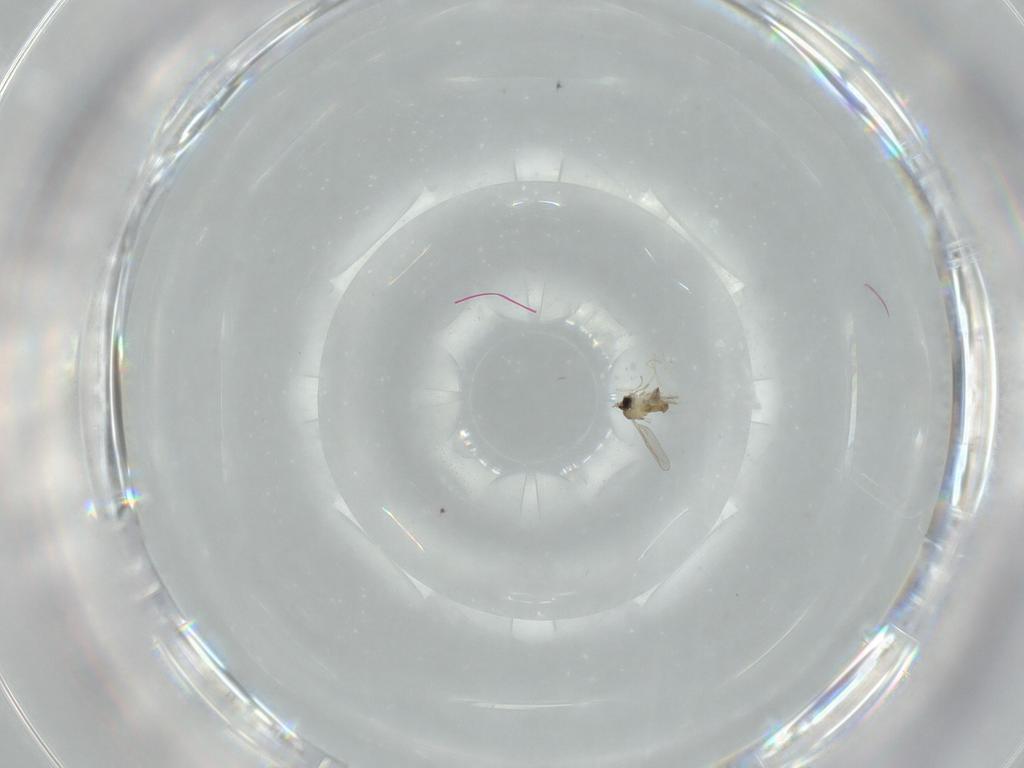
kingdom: Animalia
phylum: Arthropoda
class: Insecta
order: Diptera
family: Cecidomyiidae
